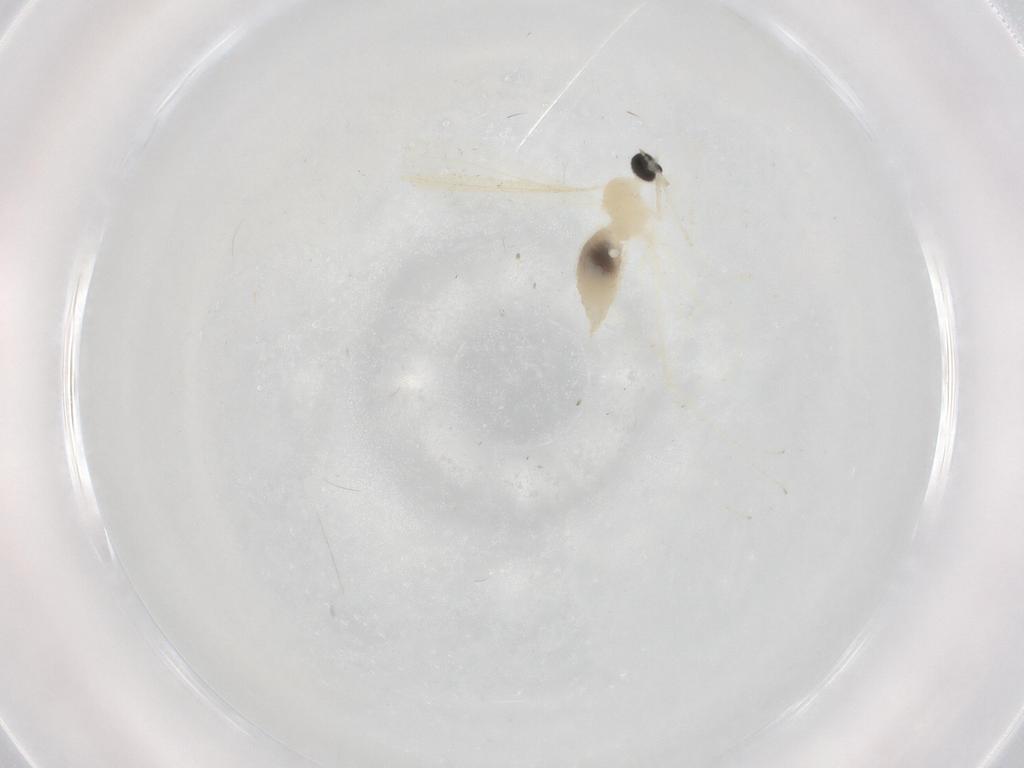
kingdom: Animalia
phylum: Arthropoda
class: Insecta
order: Diptera
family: Cecidomyiidae
